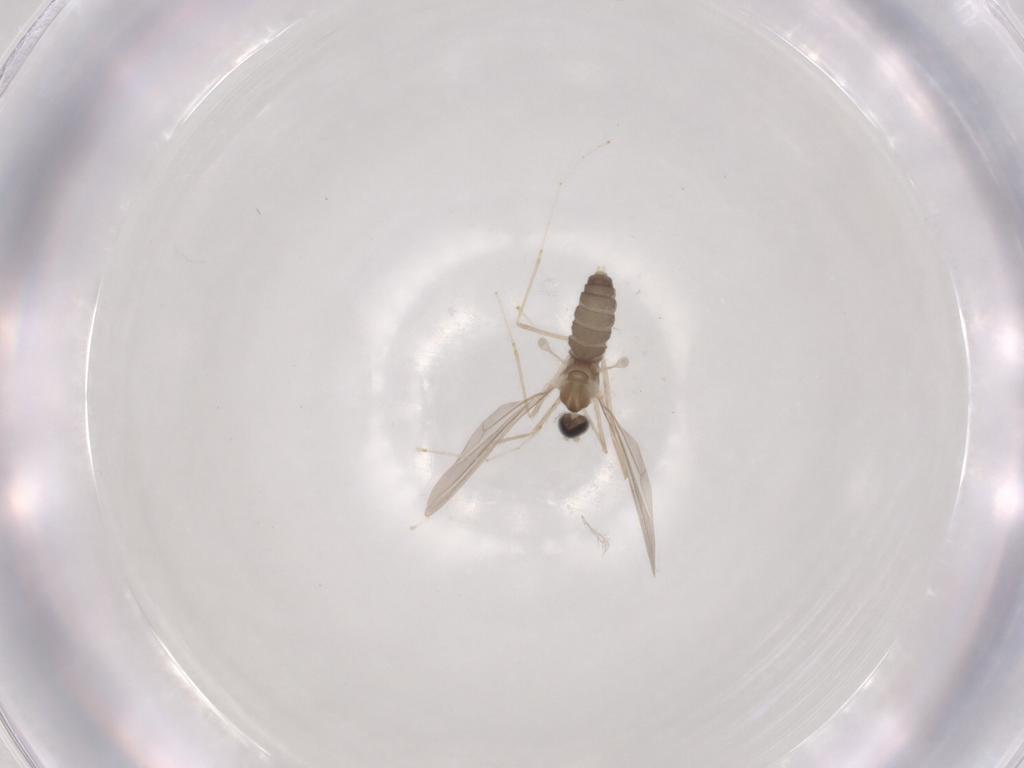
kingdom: Animalia
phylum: Arthropoda
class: Insecta
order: Diptera
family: Cecidomyiidae
